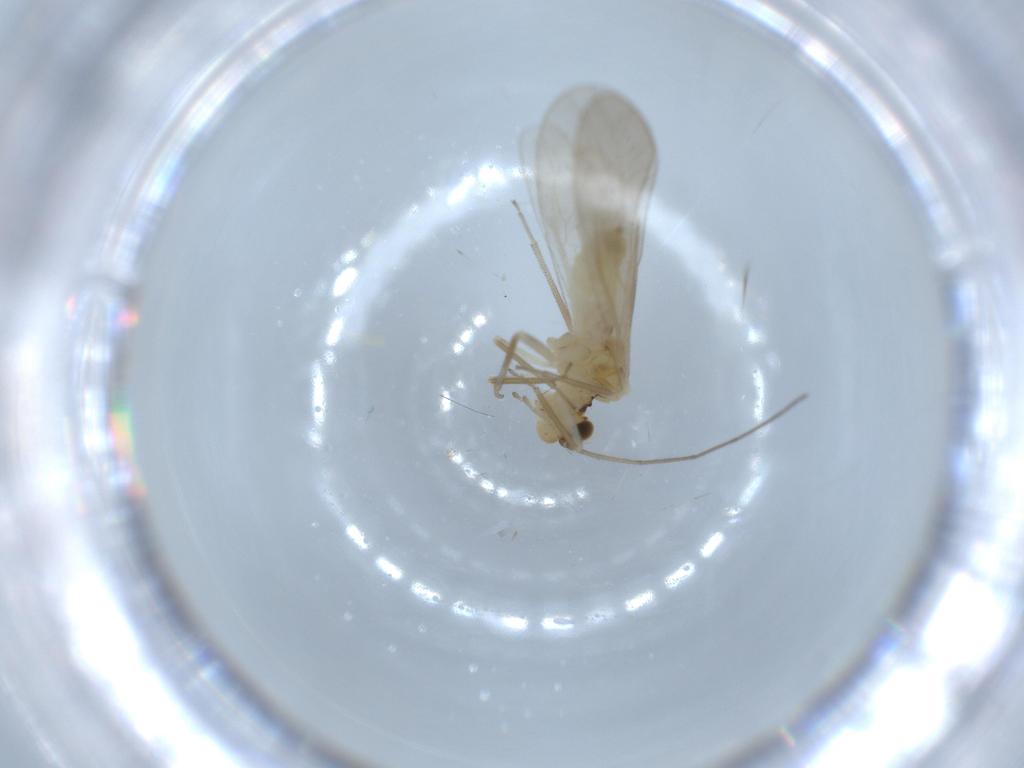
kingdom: Animalia
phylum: Arthropoda
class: Insecta
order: Psocodea
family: Caeciliusidae
